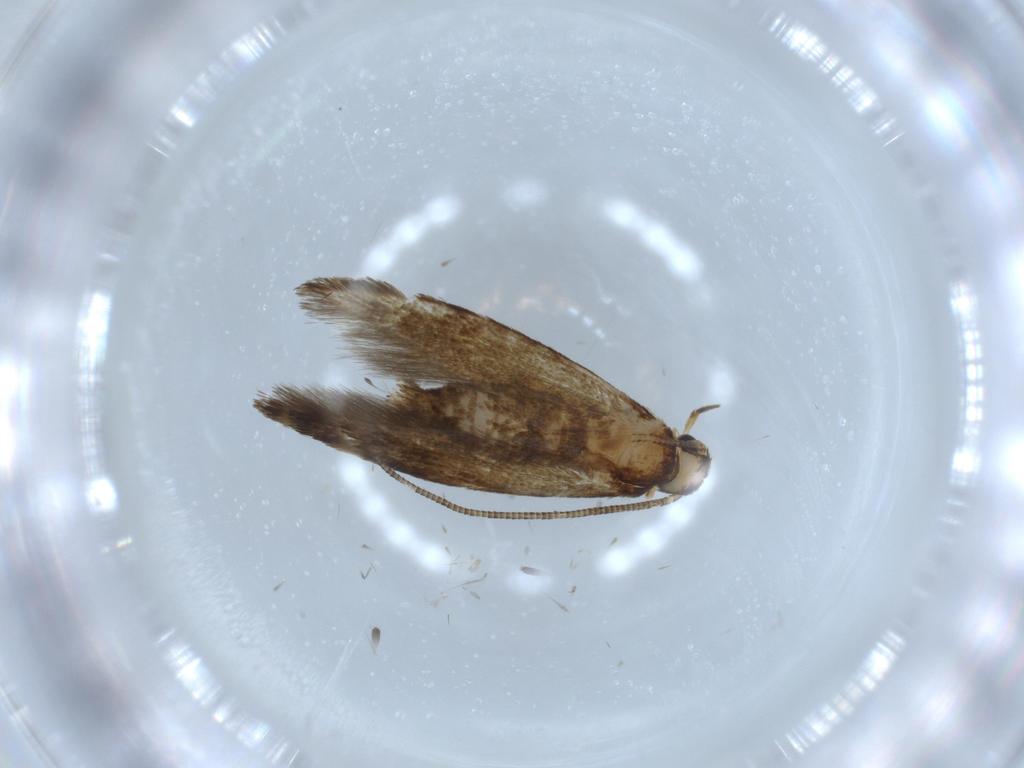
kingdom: Animalia
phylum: Arthropoda
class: Insecta
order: Lepidoptera
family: Tineidae
